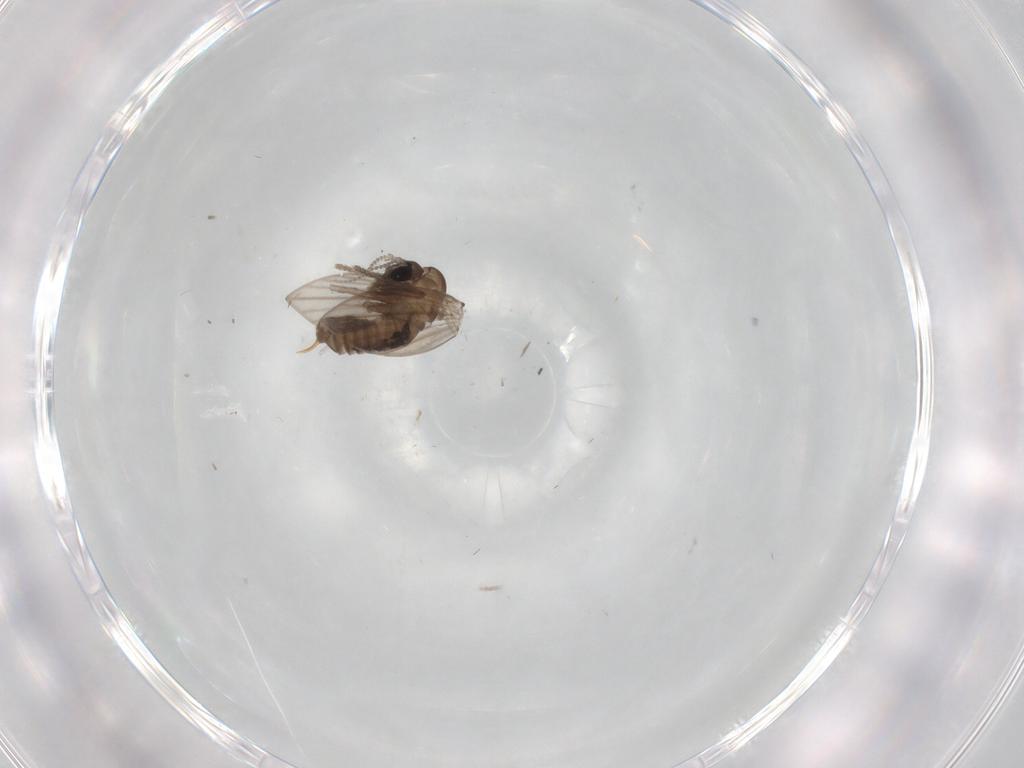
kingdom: Animalia
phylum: Arthropoda
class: Insecta
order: Diptera
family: Psychodidae
